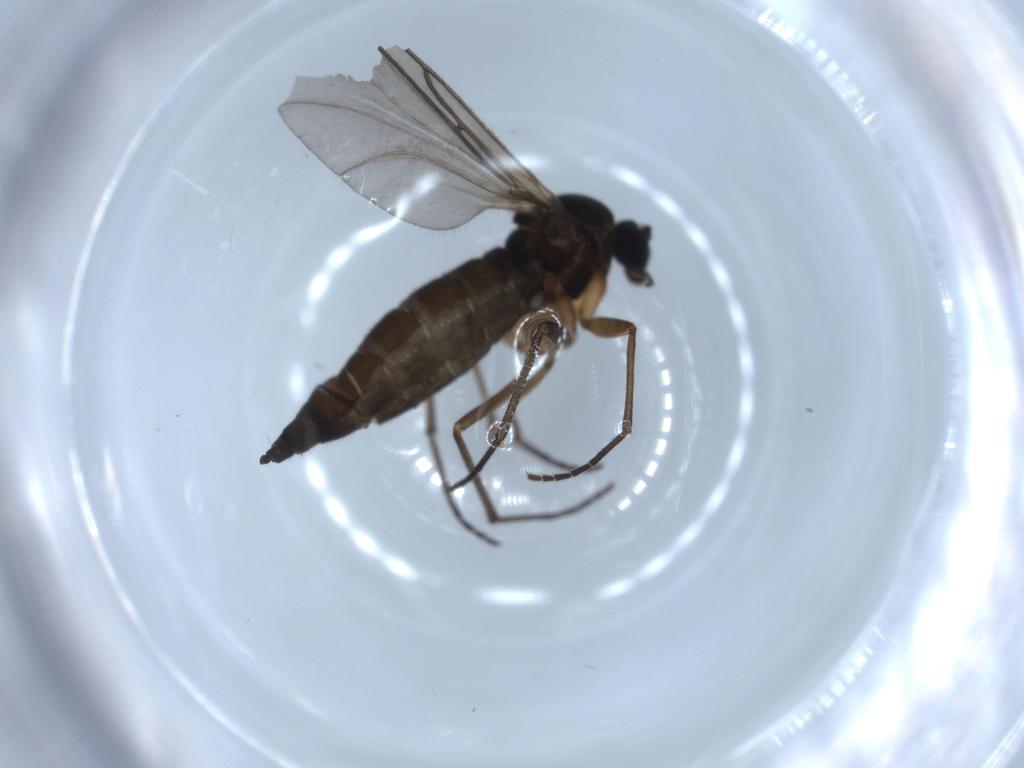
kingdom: Animalia
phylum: Arthropoda
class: Insecta
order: Diptera
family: Sciaridae
